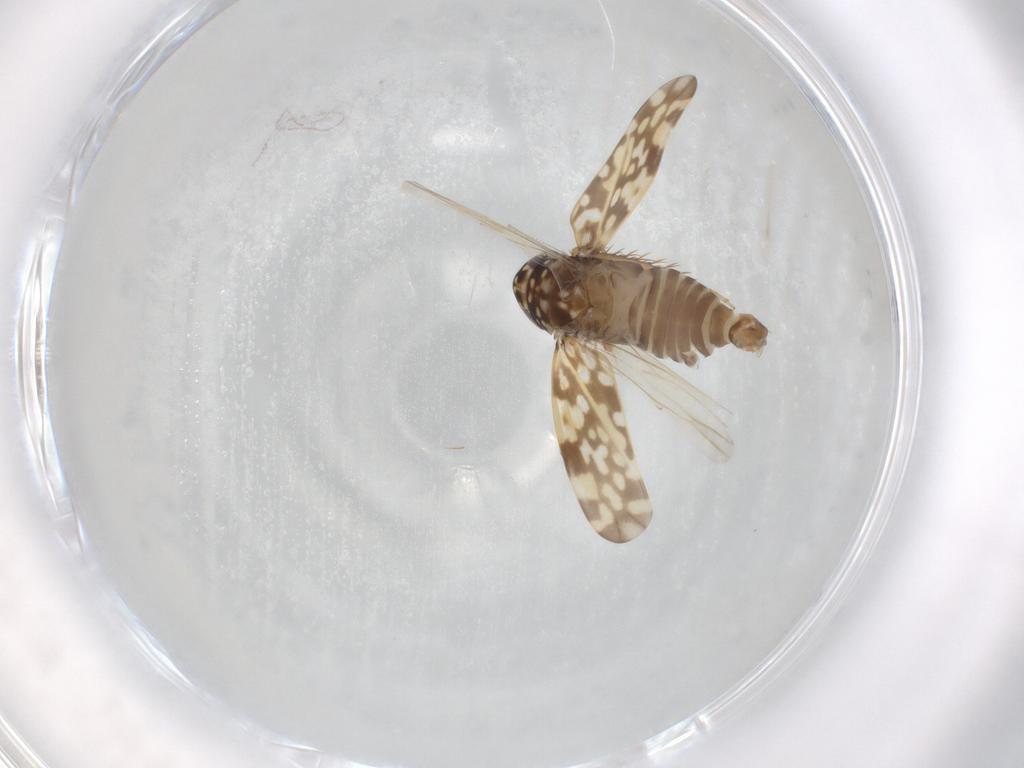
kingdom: Animalia
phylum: Arthropoda
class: Insecta
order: Hemiptera
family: Cicadellidae
